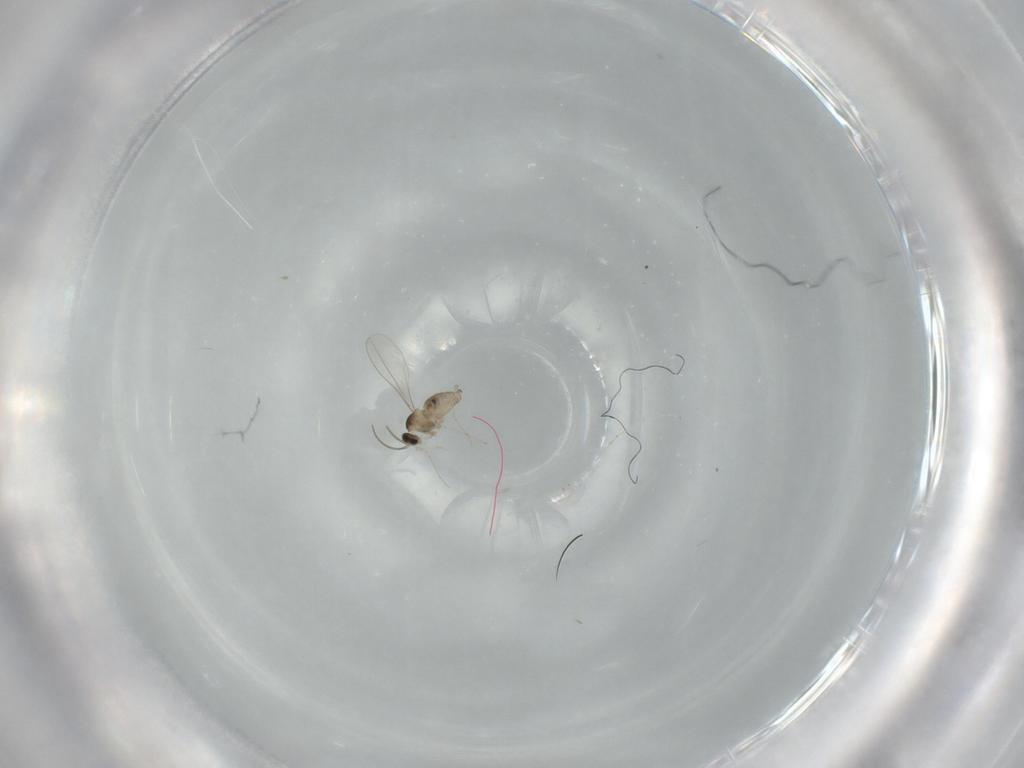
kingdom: Animalia
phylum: Arthropoda
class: Insecta
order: Diptera
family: Cecidomyiidae
